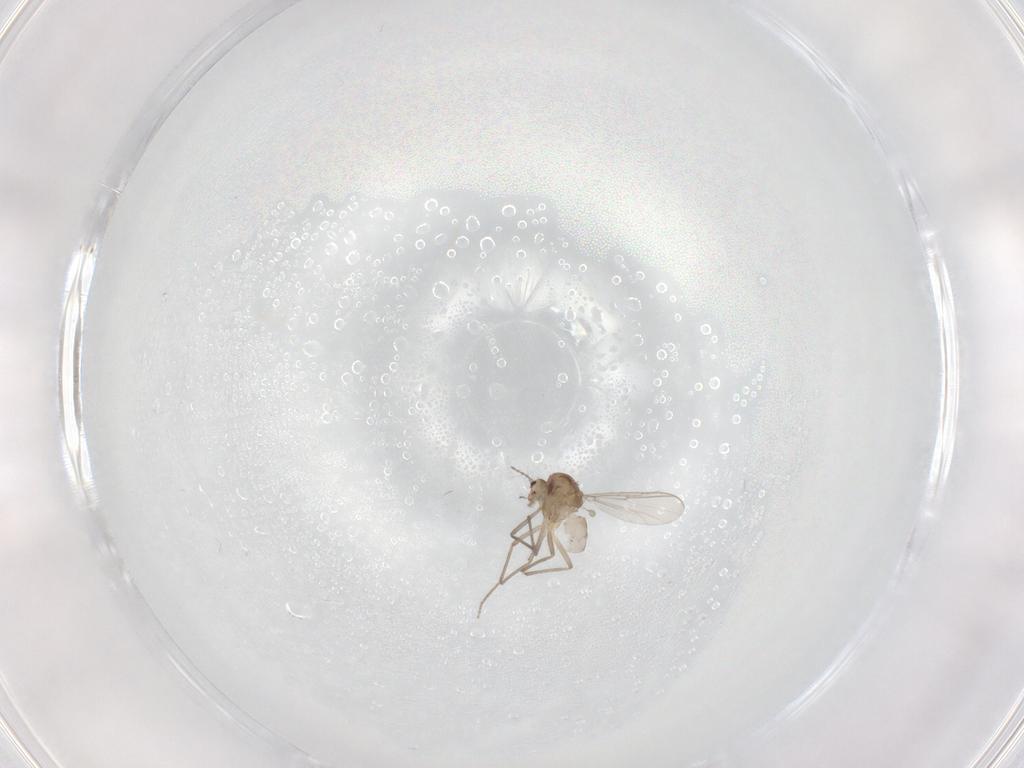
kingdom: Animalia
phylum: Arthropoda
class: Insecta
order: Diptera
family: Chironomidae
